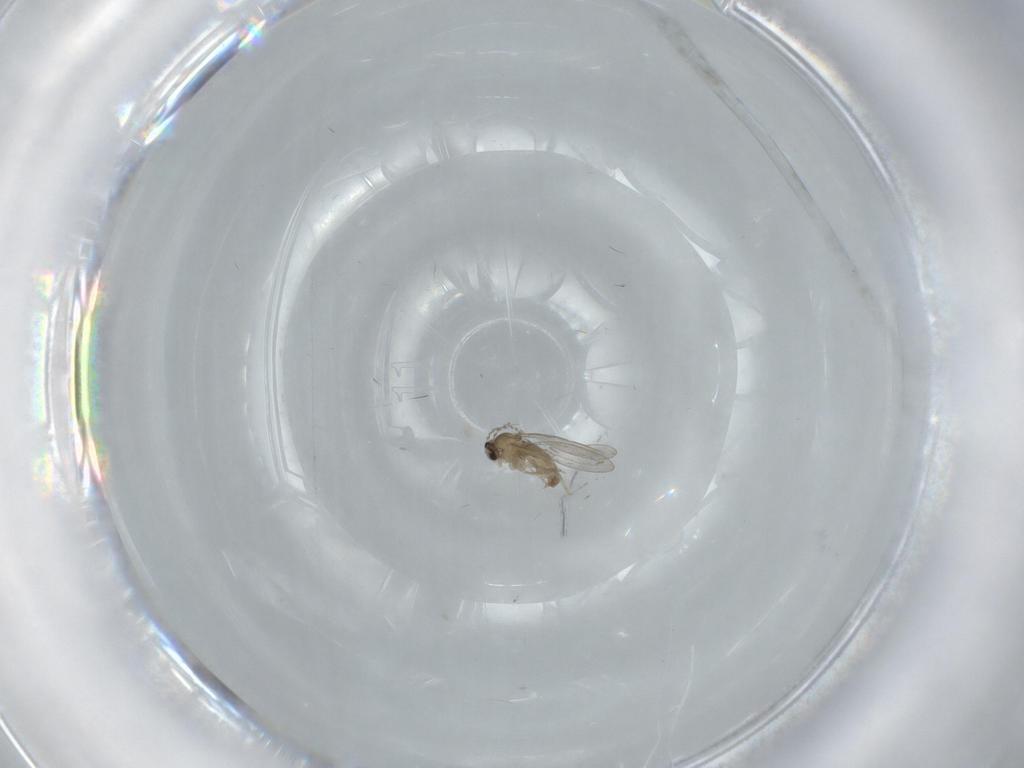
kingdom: Animalia
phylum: Arthropoda
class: Insecta
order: Diptera
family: Cecidomyiidae
